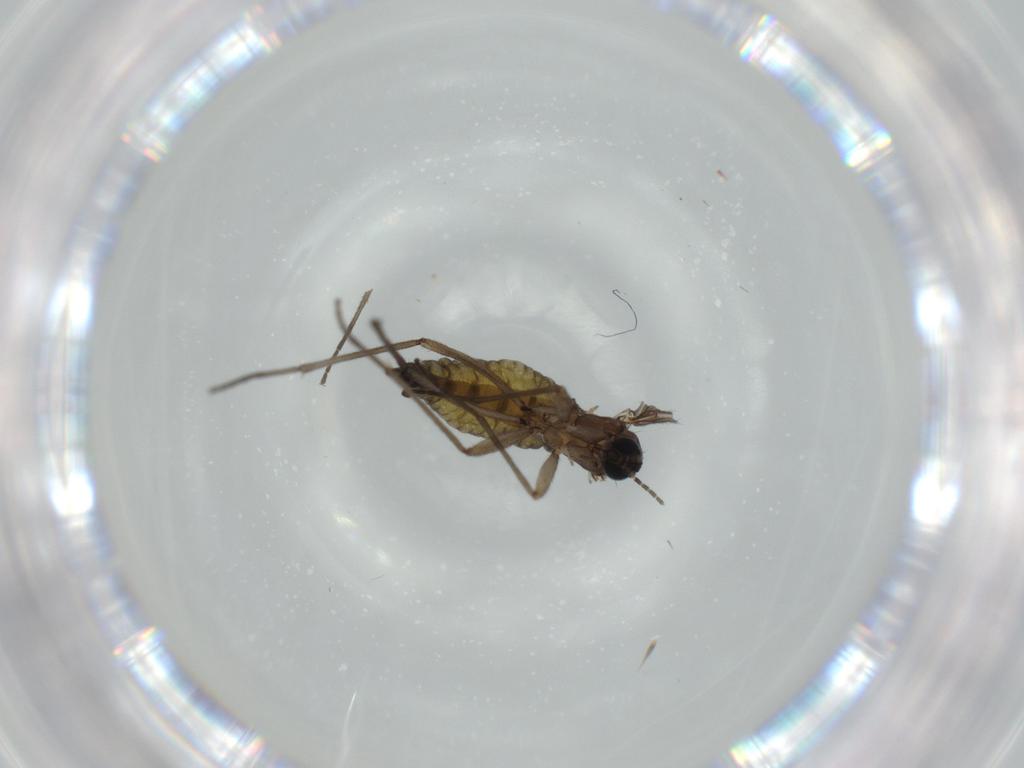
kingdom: Animalia
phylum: Arthropoda
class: Insecta
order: Diptera
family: Sciaridae
